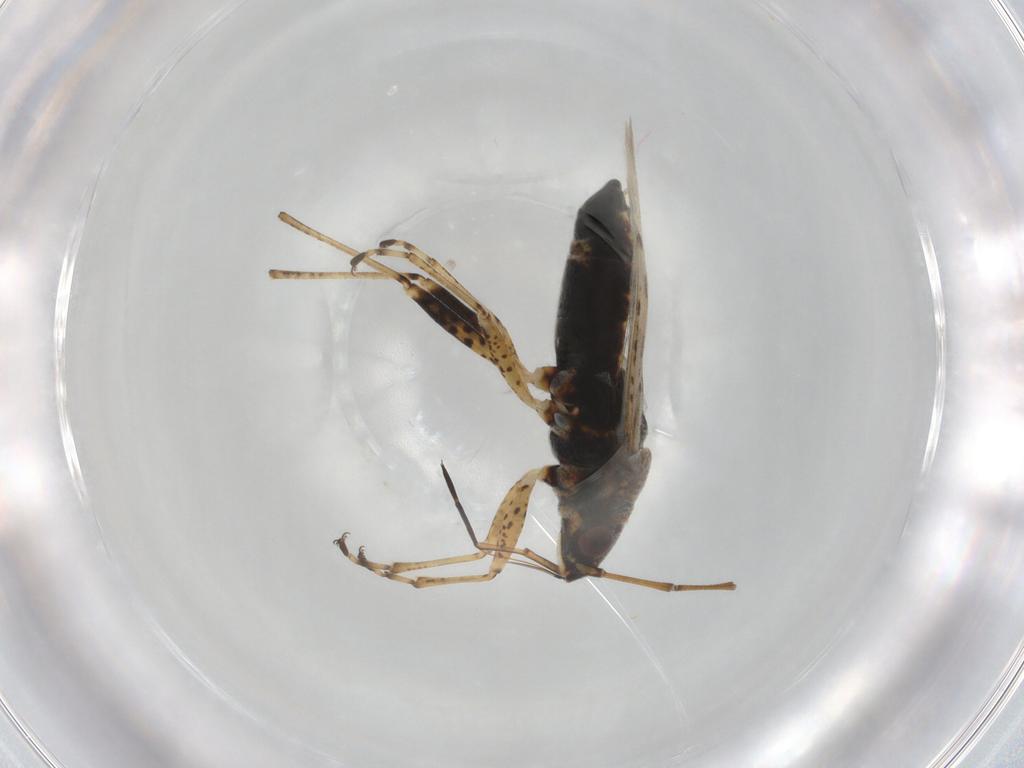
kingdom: Animalia
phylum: Arthropoda
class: Insecta
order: Hemiptera
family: Lygaeidae
